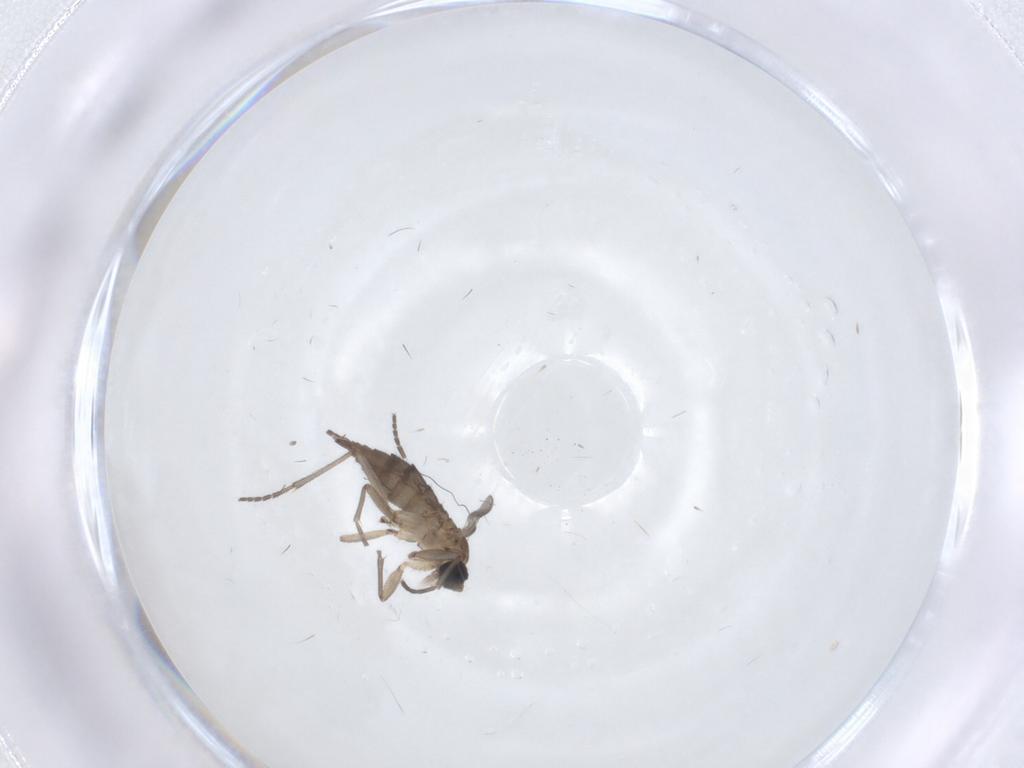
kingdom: Animalia
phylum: Arthropoda
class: Insecta
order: Diptera
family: Sciaridae
